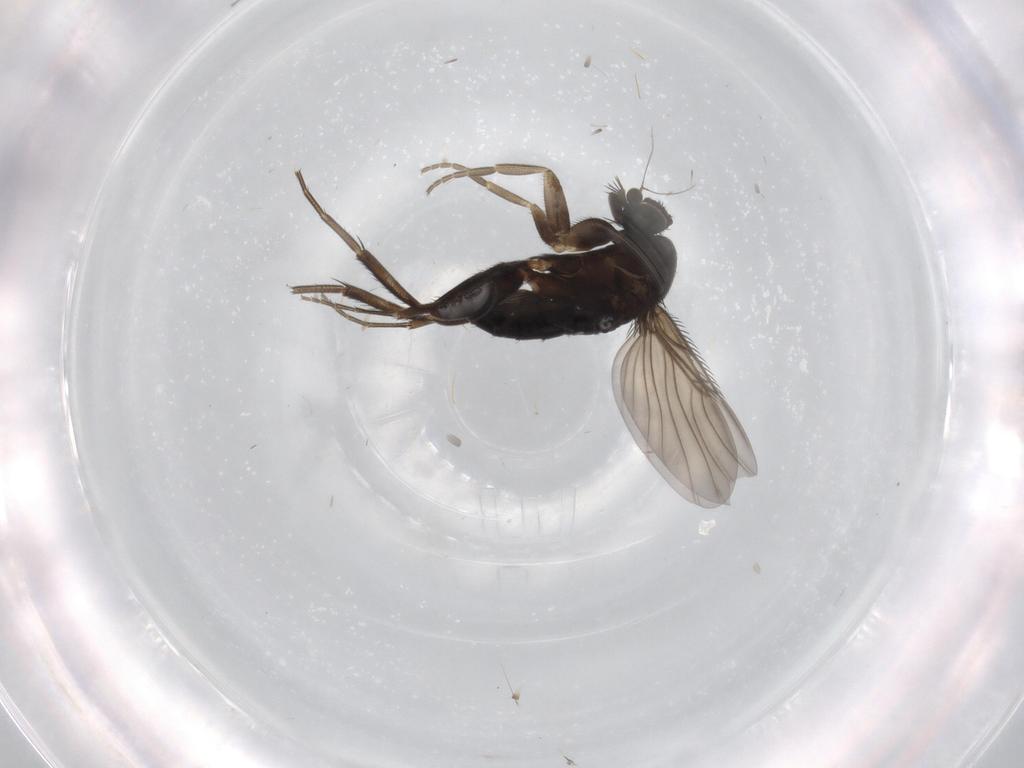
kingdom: Animalia
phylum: Arthropoda
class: Insecta
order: Diptera
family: Phoridae
